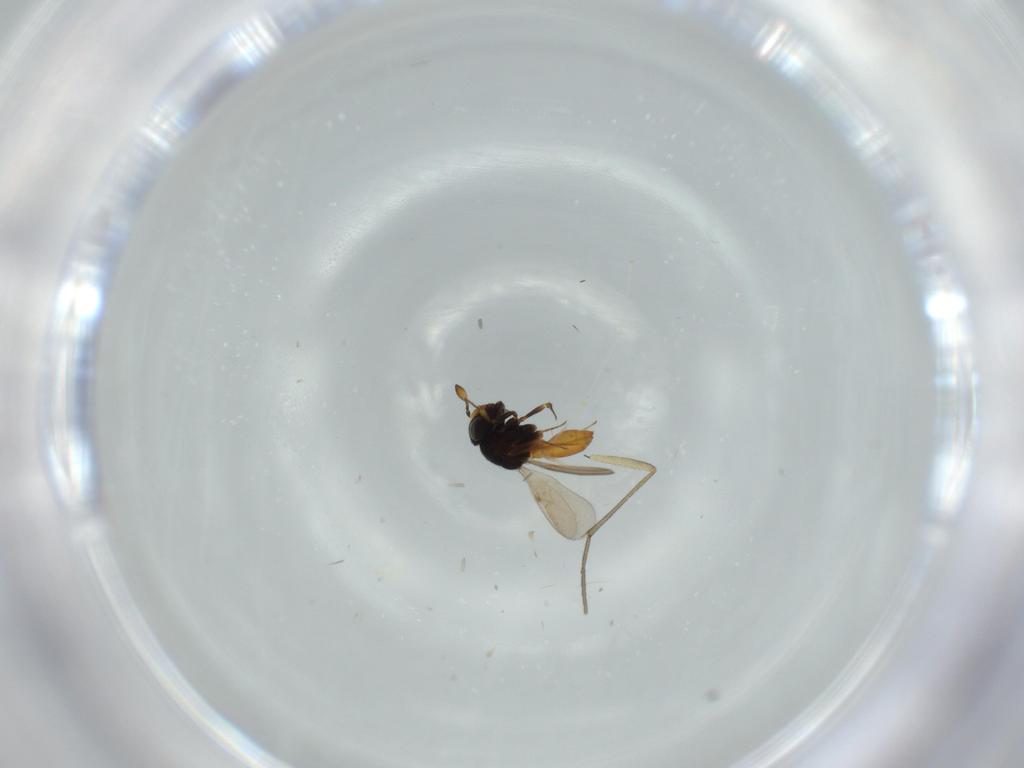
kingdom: Animalia
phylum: Arthropoda
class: Insecta
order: Hymenoptera
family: Scelionidae
